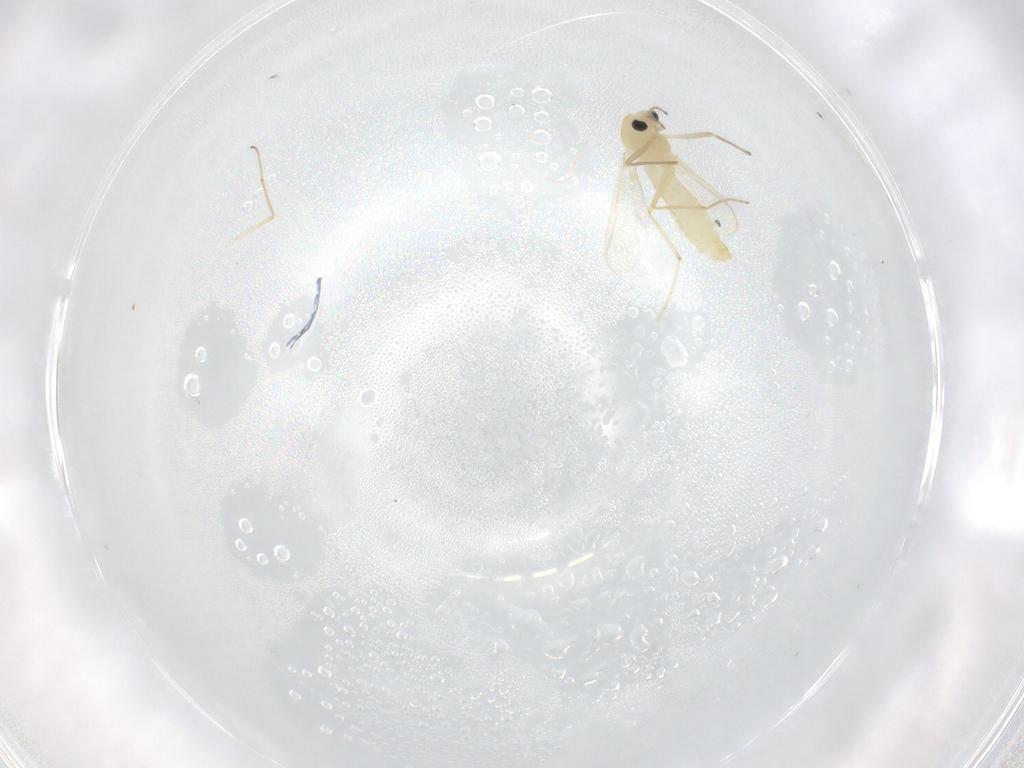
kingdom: Animalia
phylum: Arthropoda
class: Insecta
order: Diptera
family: Chironomidae
